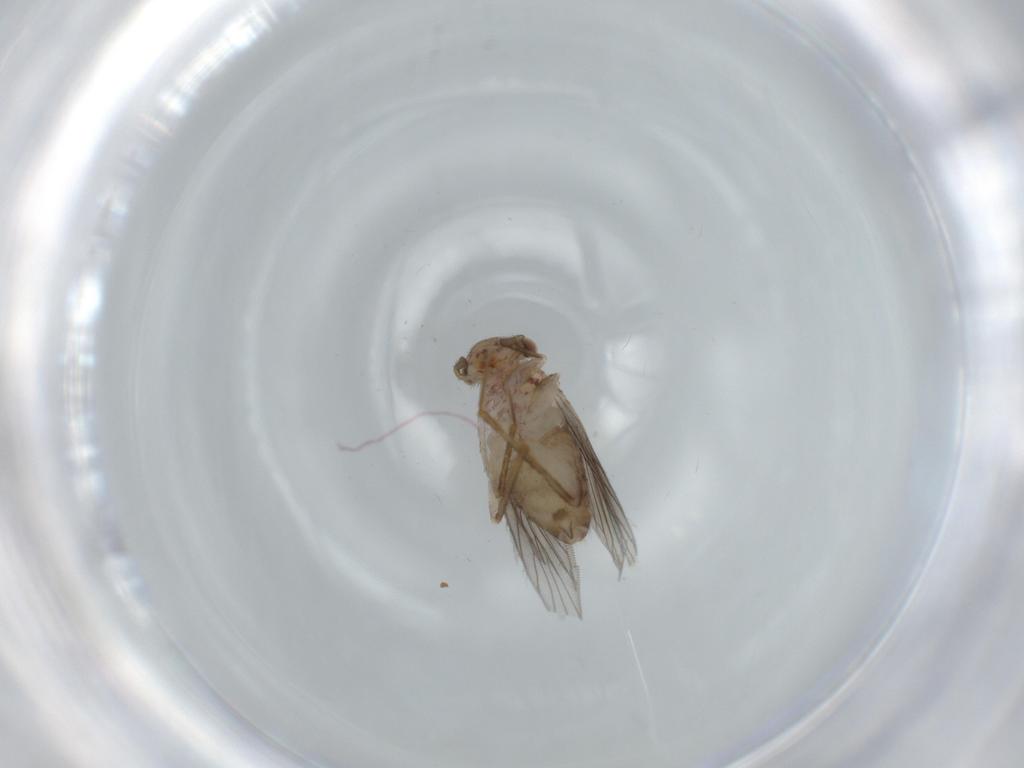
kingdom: Animalia
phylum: Arthropoda
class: Insecta
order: Psocodea
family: Lepidopsocidae
